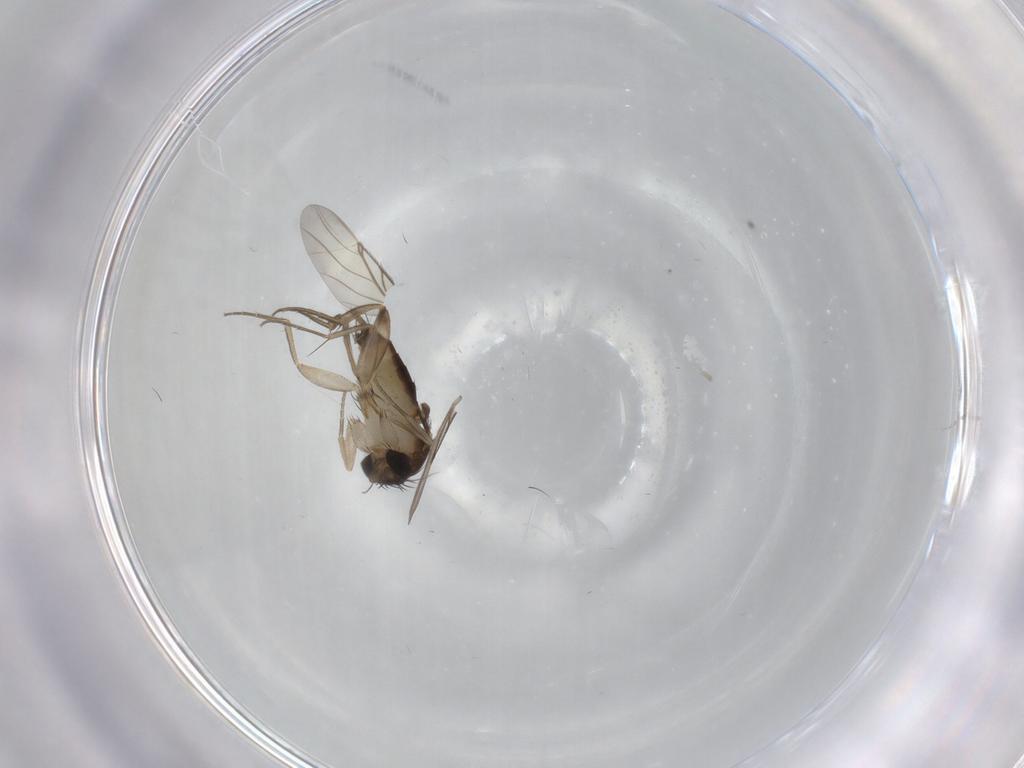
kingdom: Animalia
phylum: Arthropoda
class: Insecta
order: Diptera
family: Phoridae
